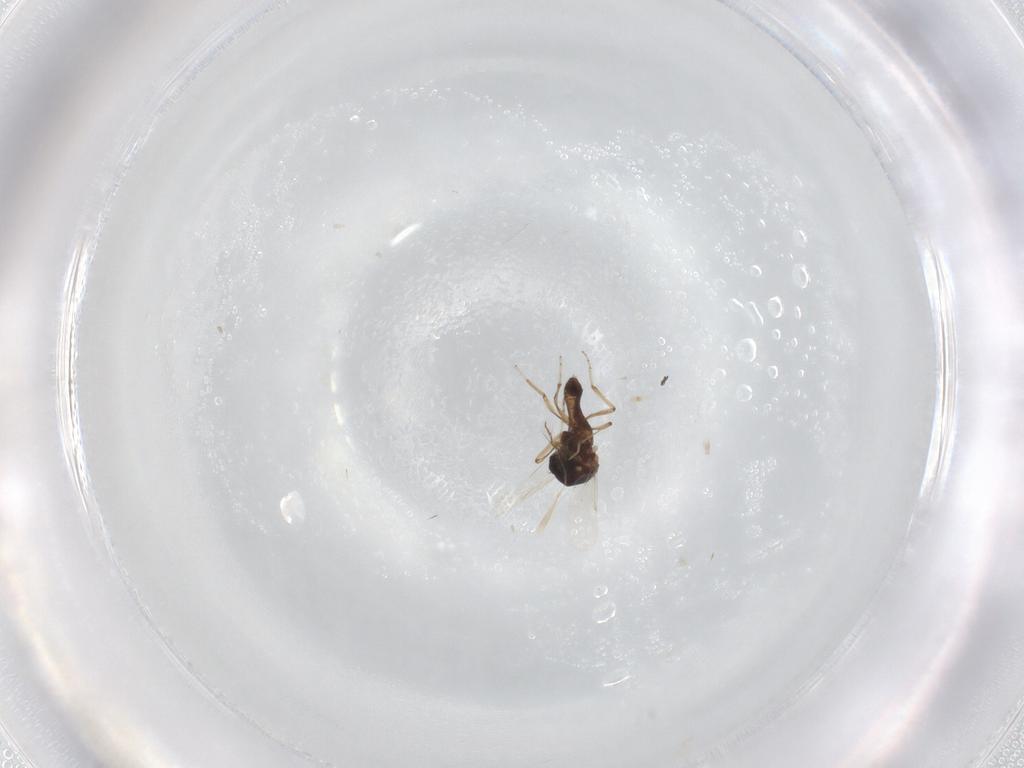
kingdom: Animalia
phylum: Arthropoda
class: Insecta
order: Diptera
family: Ceratopogonidae
